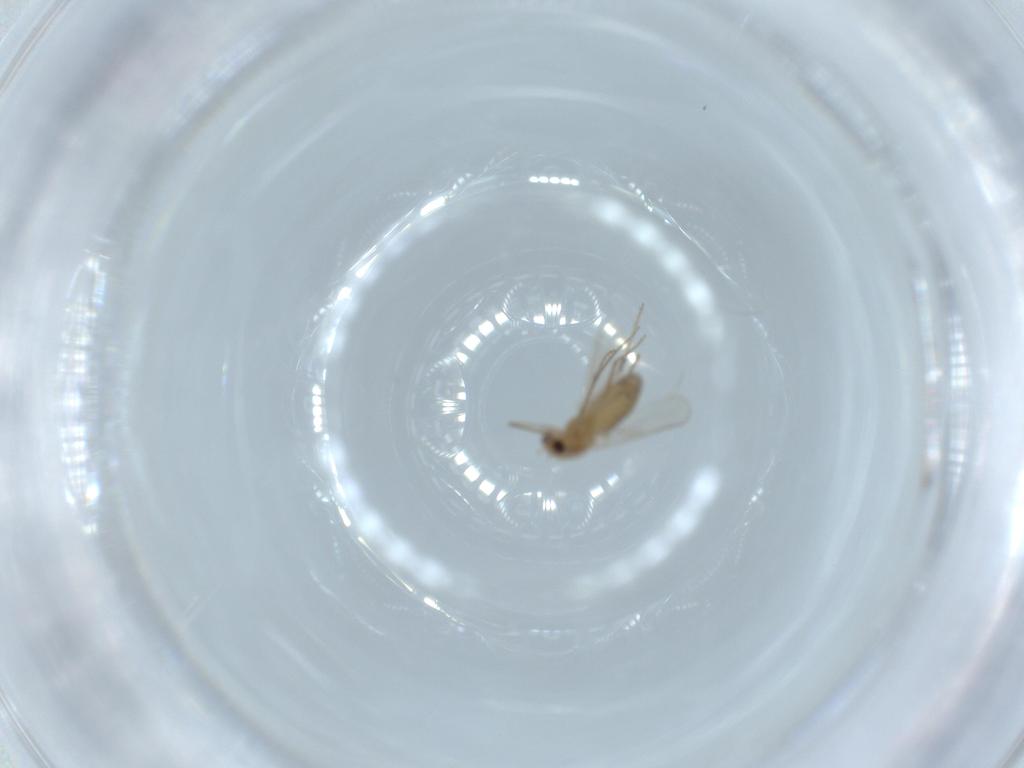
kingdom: Animalia
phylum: Arthropoda
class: Insecta
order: Diptera
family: Chironomidae
